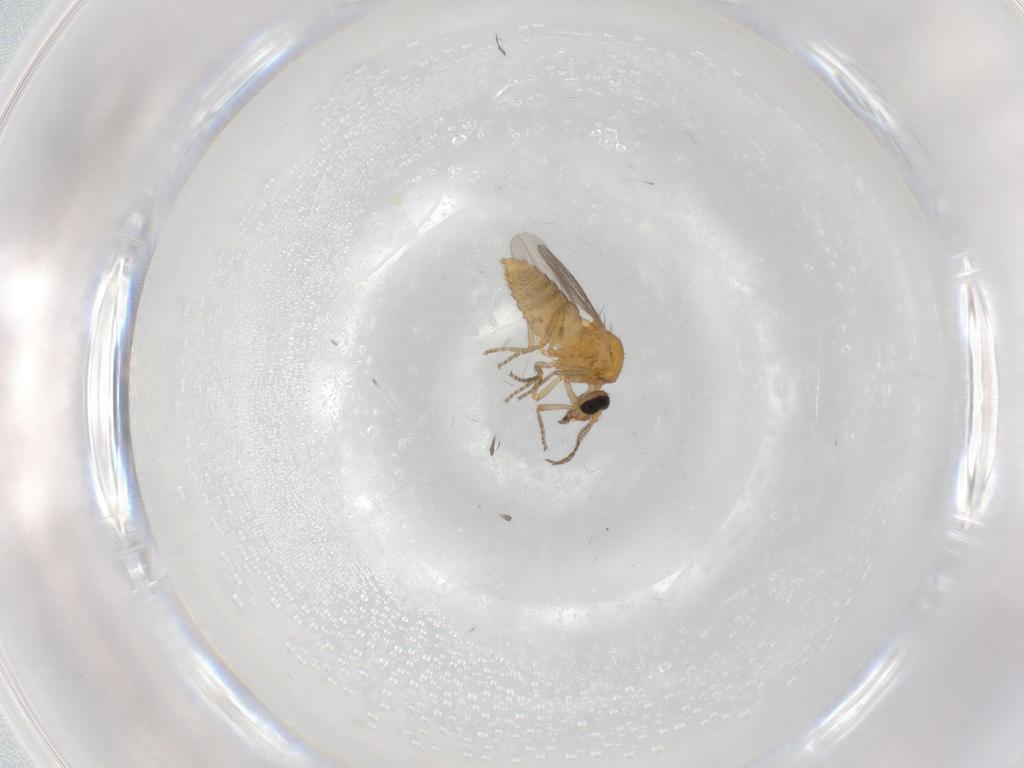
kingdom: Animalia
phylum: Arthropoda
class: Insecta
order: Diptera
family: Ceratopogonidae
